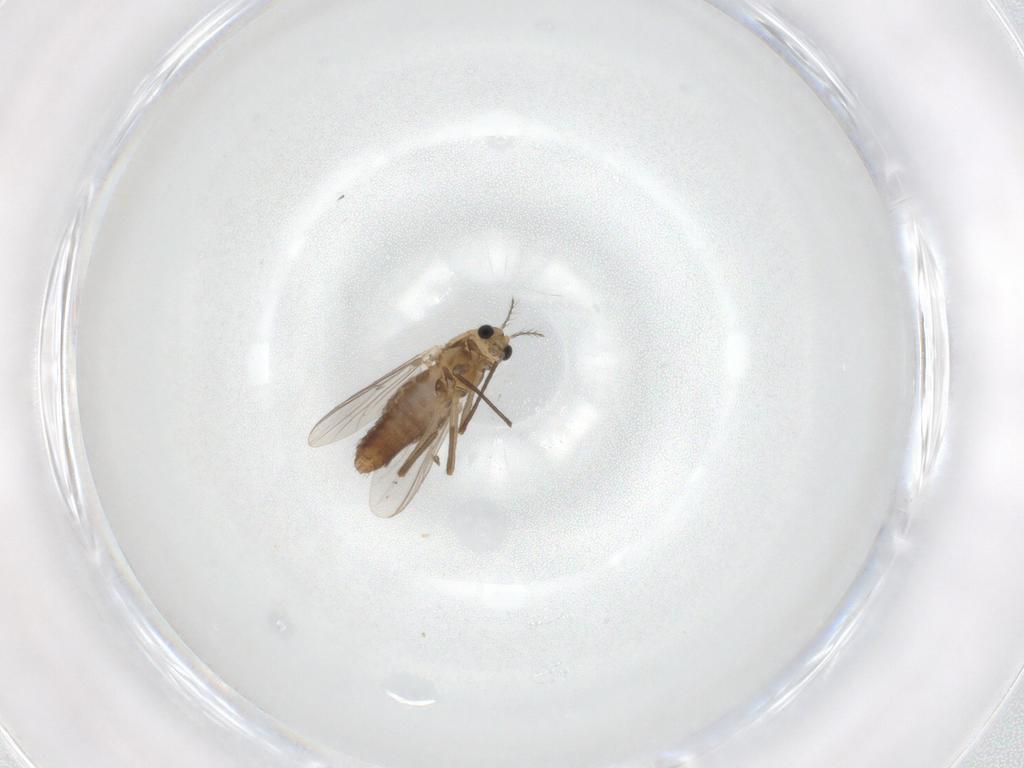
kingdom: Animalia
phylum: Arthropoda
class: Insecta
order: Diptera
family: Chironomidae
